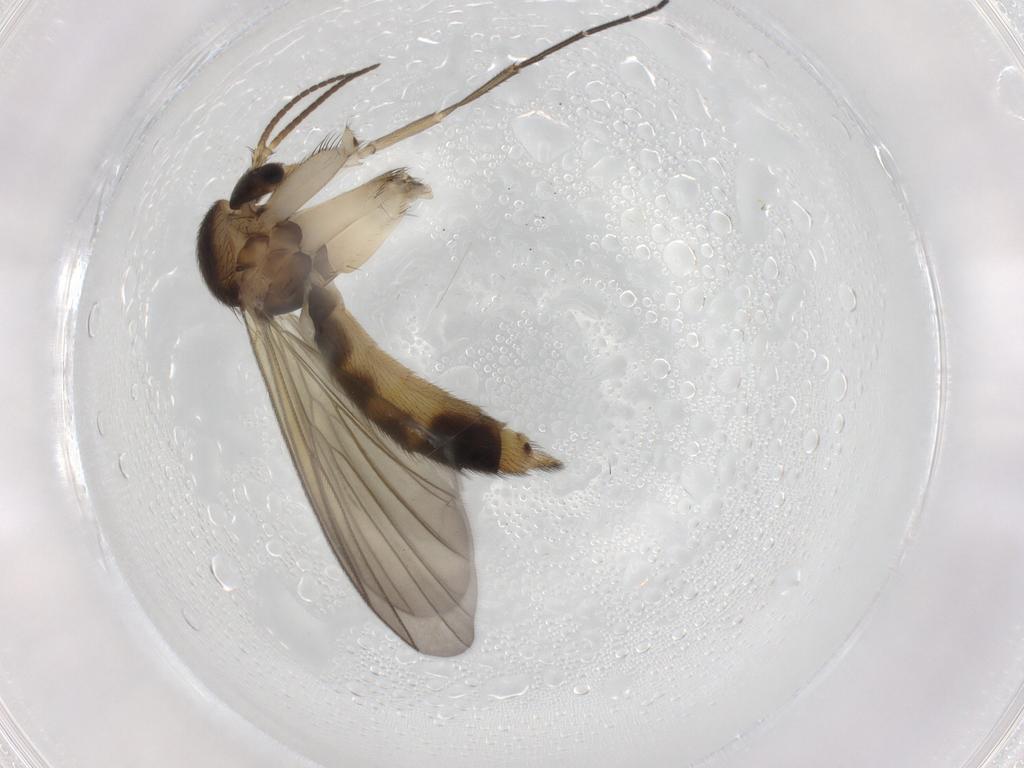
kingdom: Animalia
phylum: Arthropoda
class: Insecta
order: Diptera
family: Mycetophilidae
